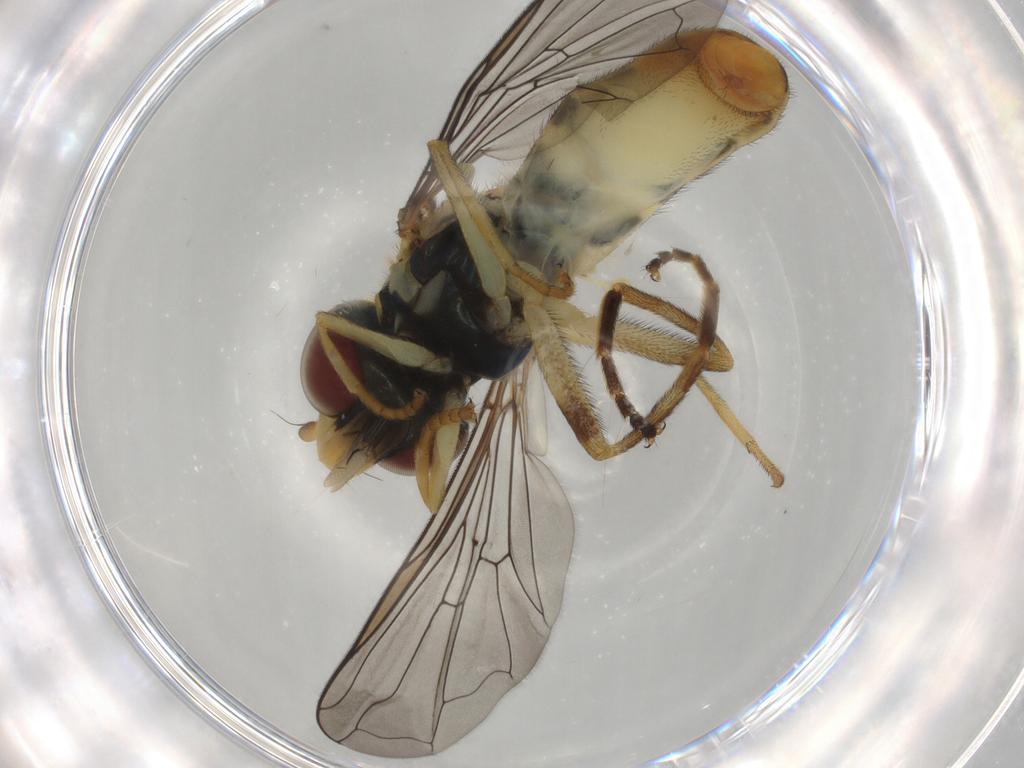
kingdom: Animalia
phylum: Arthropoda
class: Insecta
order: Diptera
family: Syrphidae
